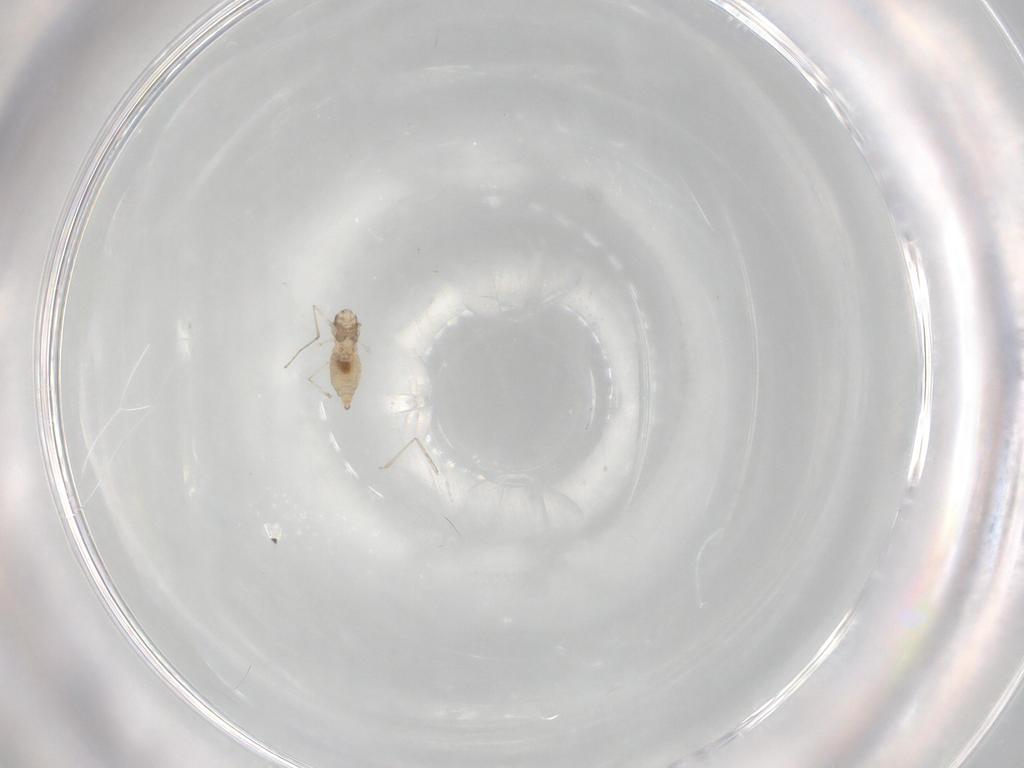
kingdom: Animalia
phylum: Arthropoda
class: Insecta
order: Diptera
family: Cecidomyiidae
